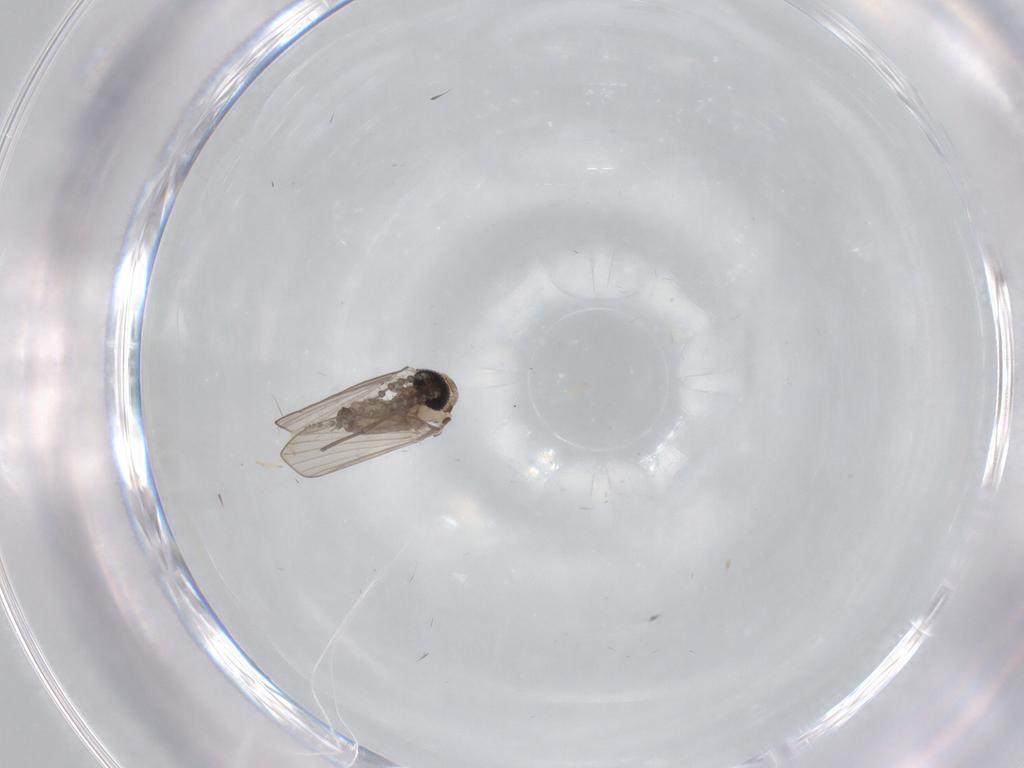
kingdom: Animalia
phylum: Arthropoda
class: Insecta
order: Diptera
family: Psychodidae
